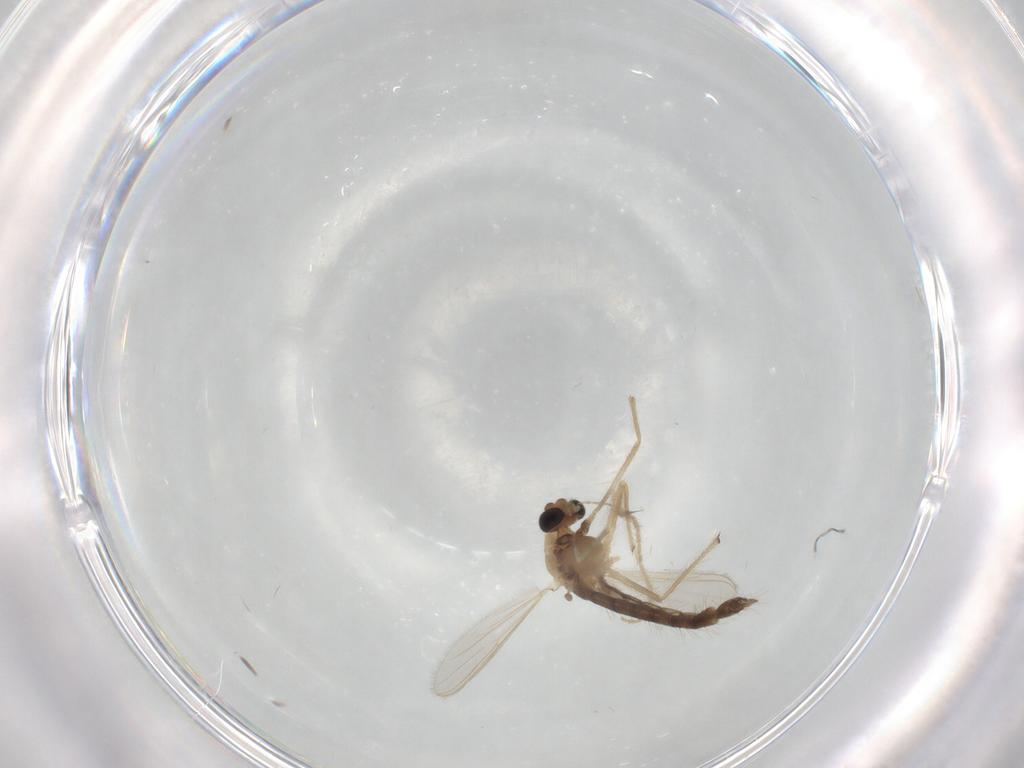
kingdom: Animalia
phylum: Arthropoda
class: Insecta
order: Diptera
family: Chironomidae
